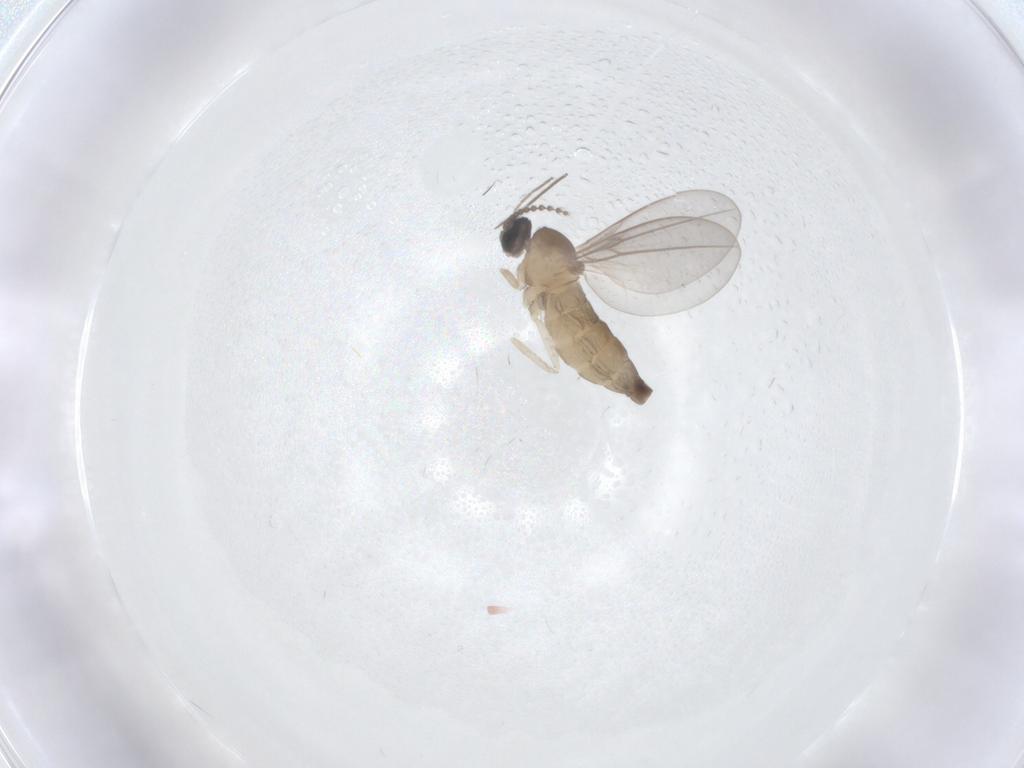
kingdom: Animalia
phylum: Arthropoda
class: Insecta
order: Diptera
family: Cecidomyiidae
